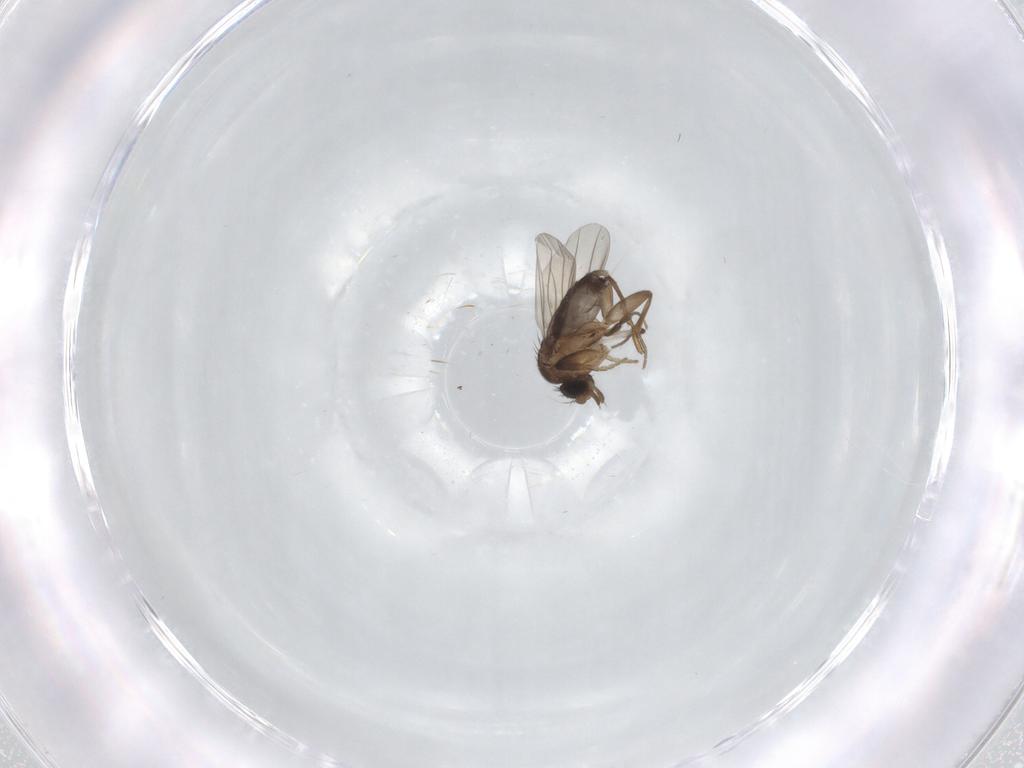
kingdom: Animalia
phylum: Arthropoda
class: Insecta
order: Diptera
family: Phoridae
